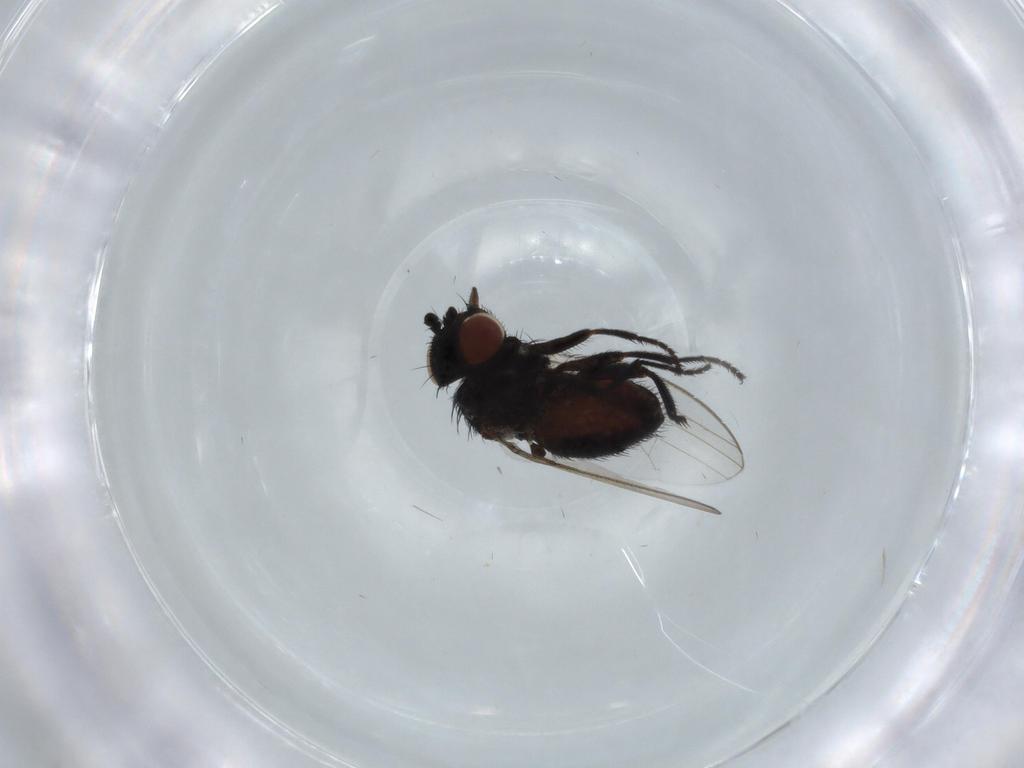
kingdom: Animalia
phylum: Arthropoda
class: Insecta
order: Diptera
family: Milichiidae
